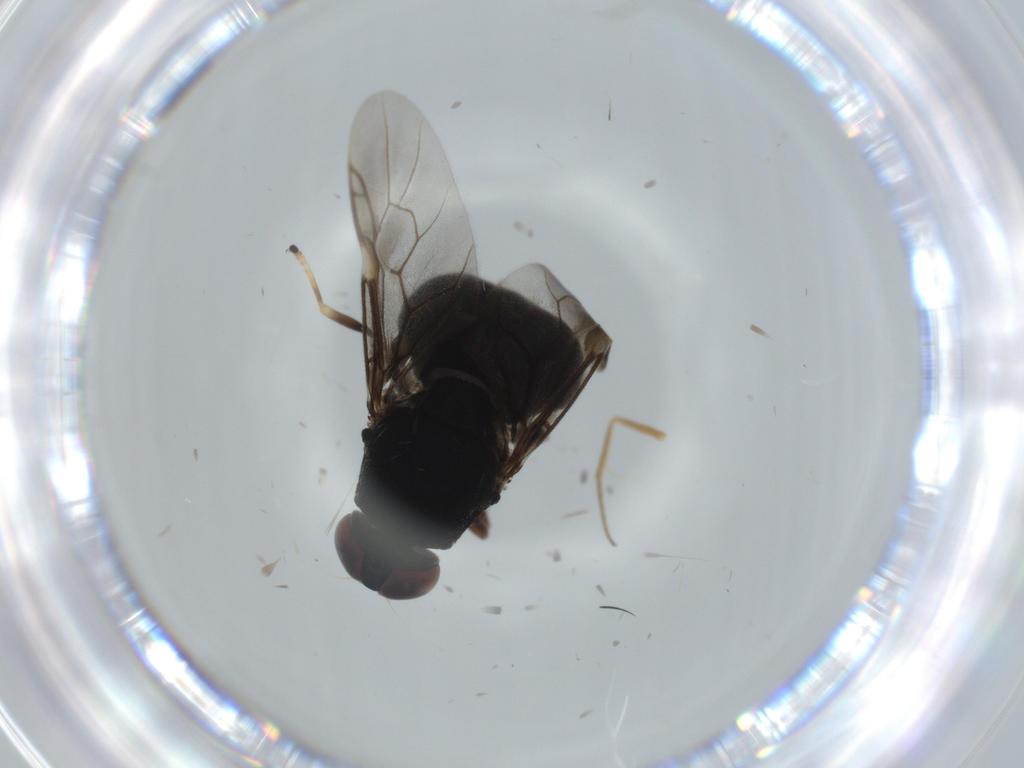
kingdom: Animalia
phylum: Arthropoda
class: Insecta
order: Diptera
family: Stratiomyidae
